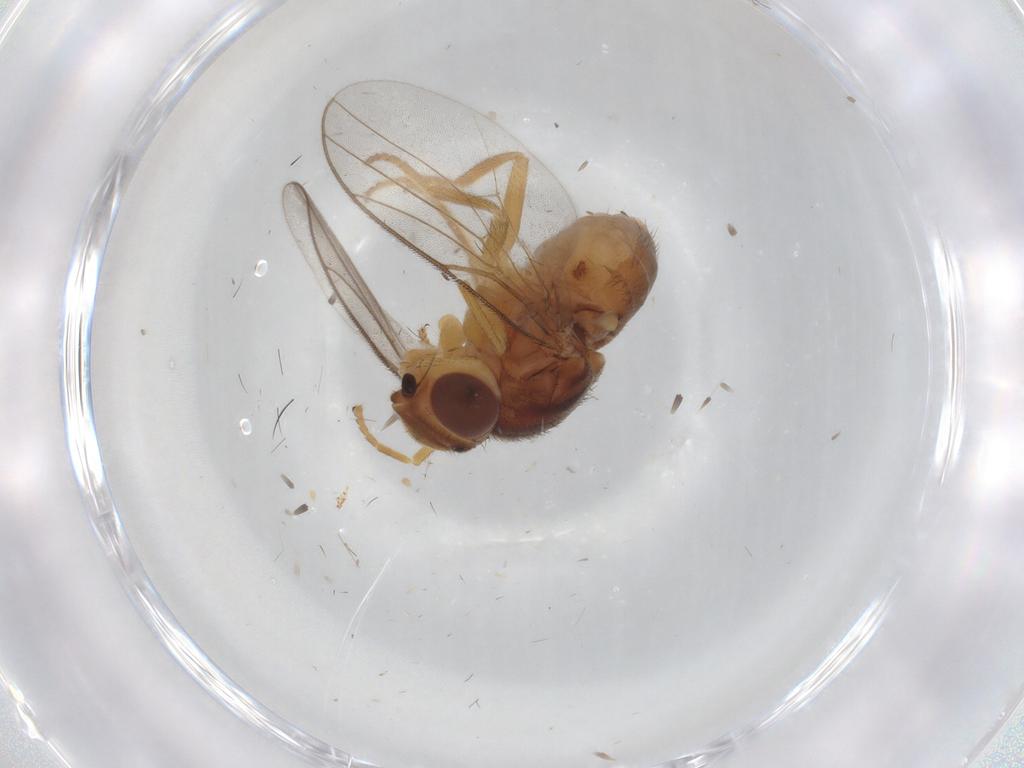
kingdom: Animalia
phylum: Arthropoda
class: Insecta
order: Diptera
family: Chloropidae
